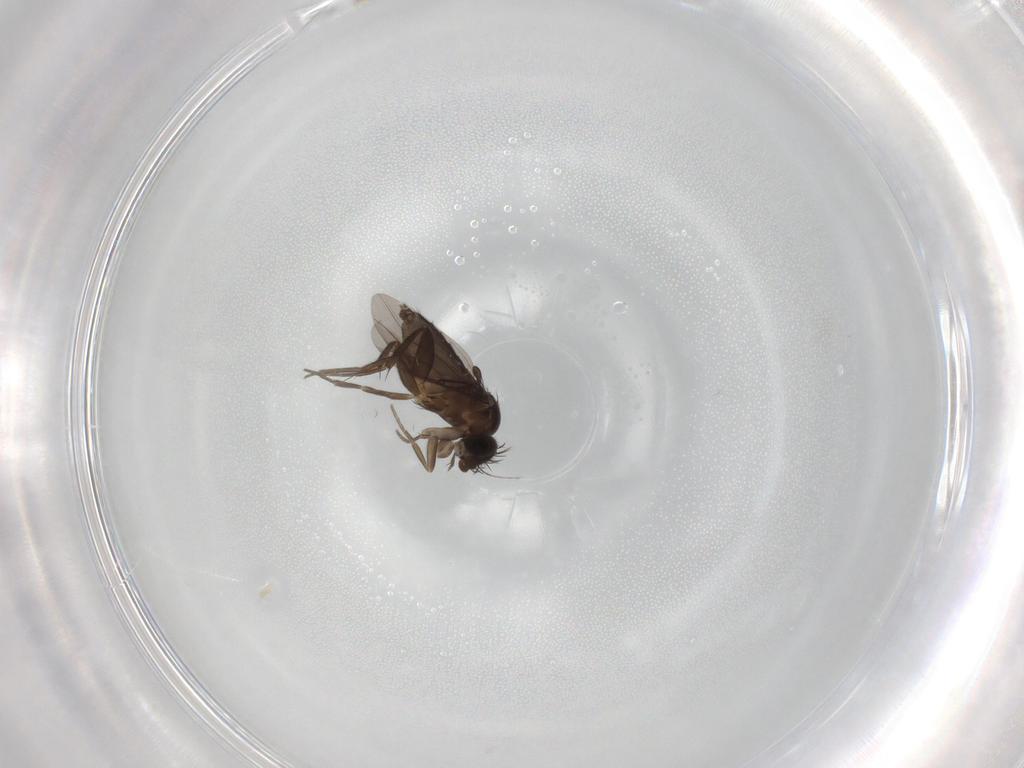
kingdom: Animalia
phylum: Arthropoda
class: Insecta
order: Diptera
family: Phoridae
